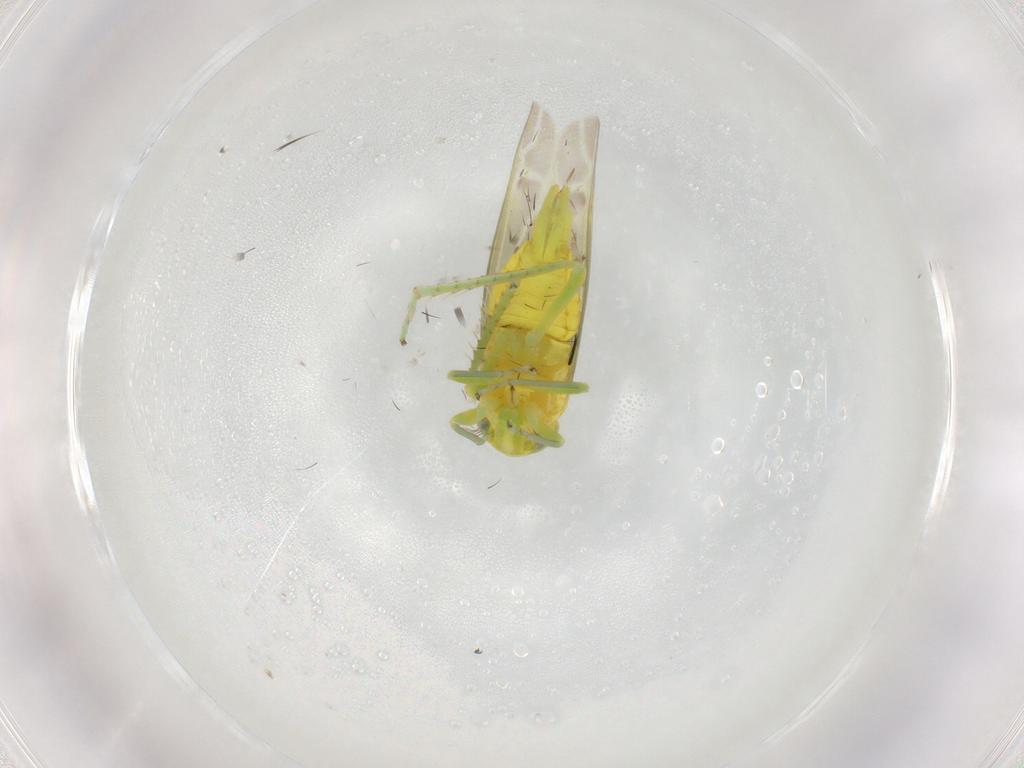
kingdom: Animalia
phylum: Arthropoda
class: Insecta
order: Hemiptera
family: Cicadellidae
